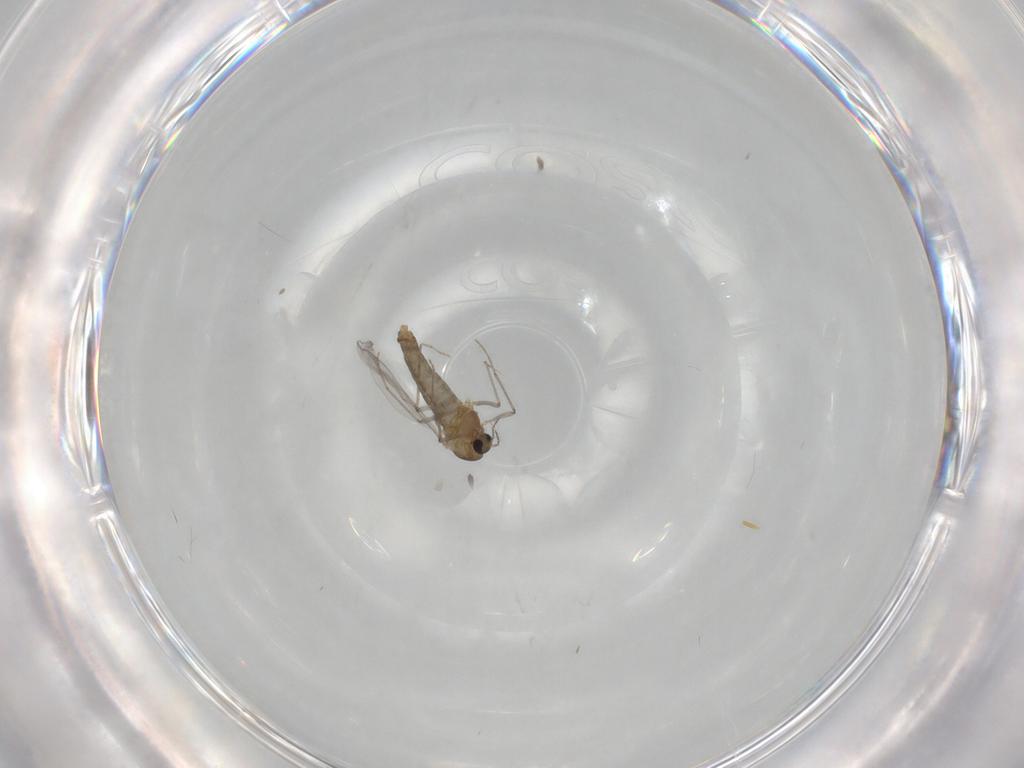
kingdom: Animalia
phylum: Arthropoda
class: Insecta
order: Diptera
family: Chironomidae
